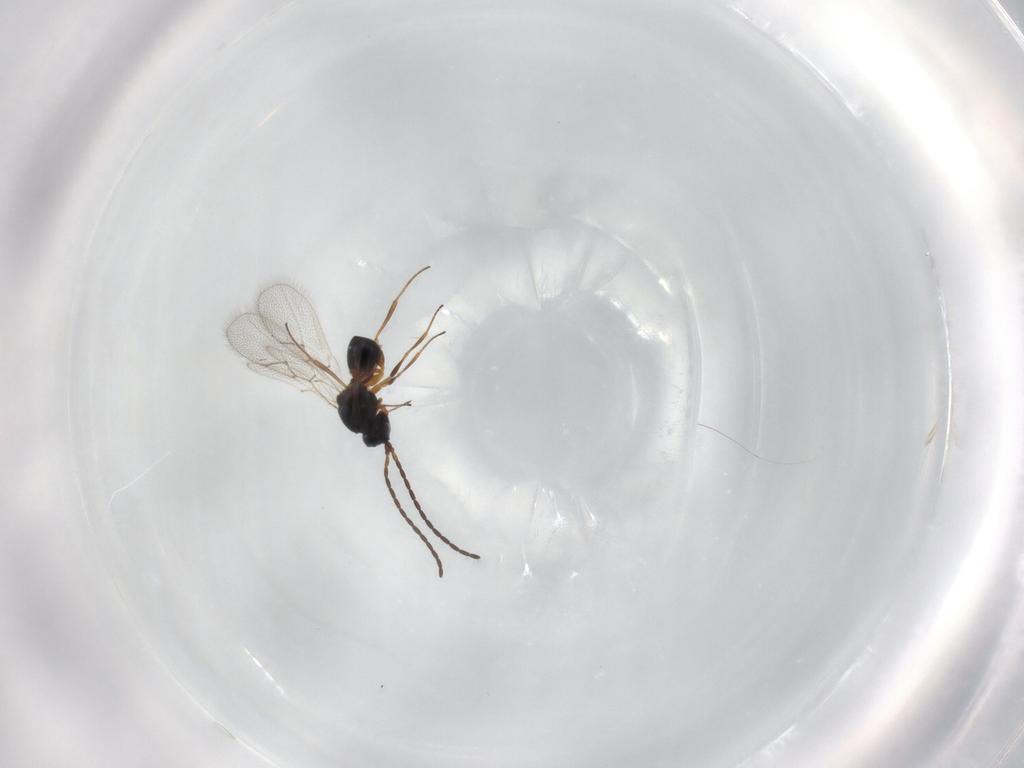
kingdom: Animalia
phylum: Arthropoda
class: Insecta
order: Hymenoptera
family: Figitidae
